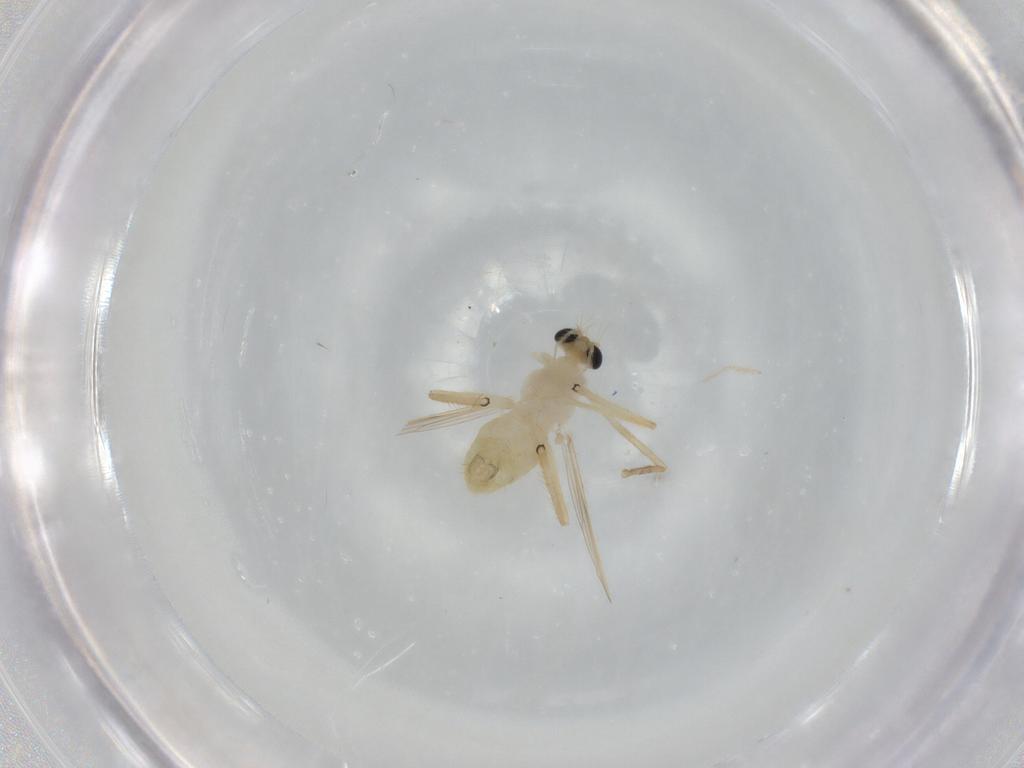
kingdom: Animalia
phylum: Arthropoda
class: Insecta
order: Diptera
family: Chironomidae
